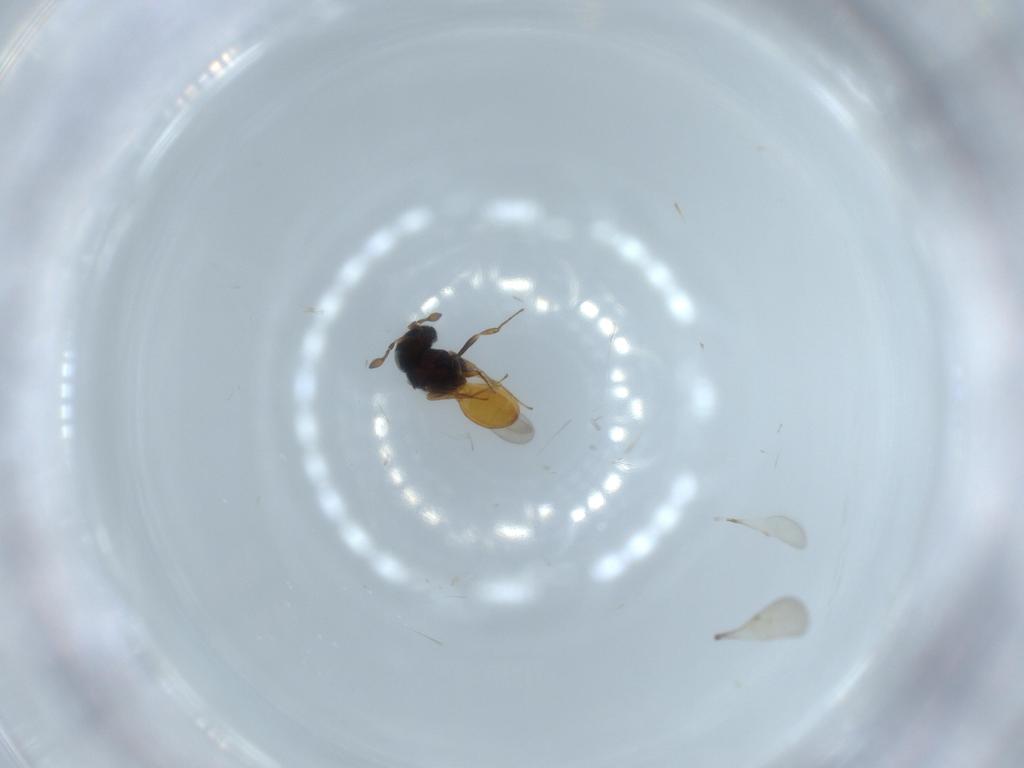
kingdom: Animalia
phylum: Arthropoda
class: Insecta
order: Hymenoptera
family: Scelionidae
